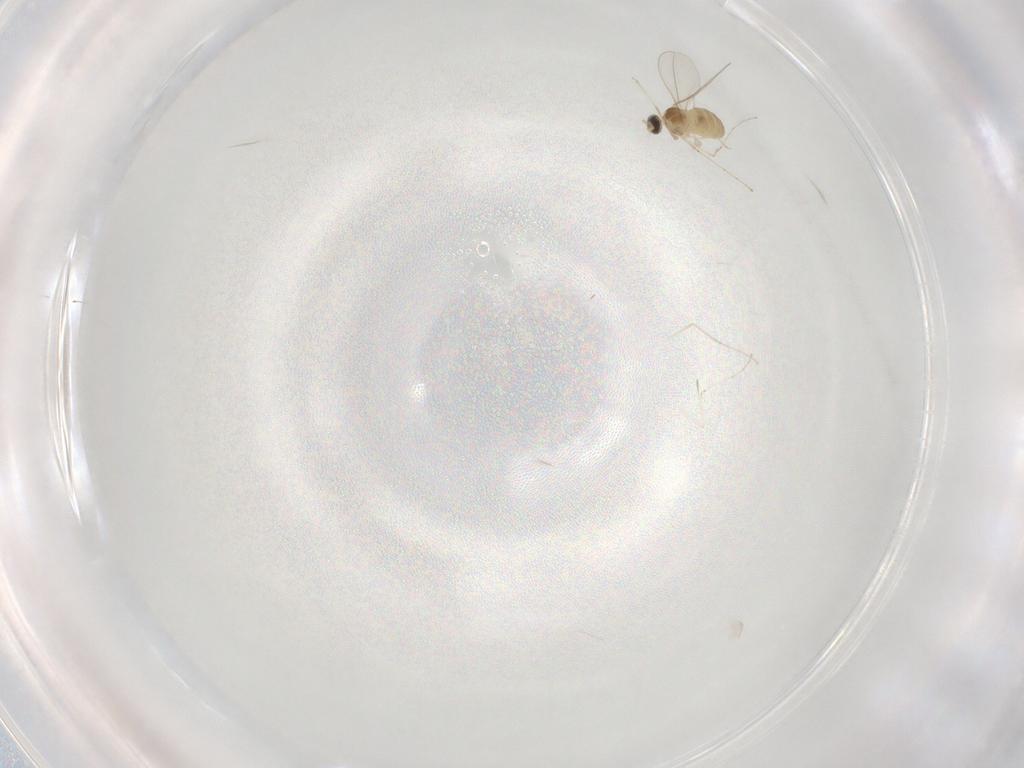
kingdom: Animalia
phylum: Arthropoda
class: Insecta
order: Diptera
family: Cecidomyiidae
